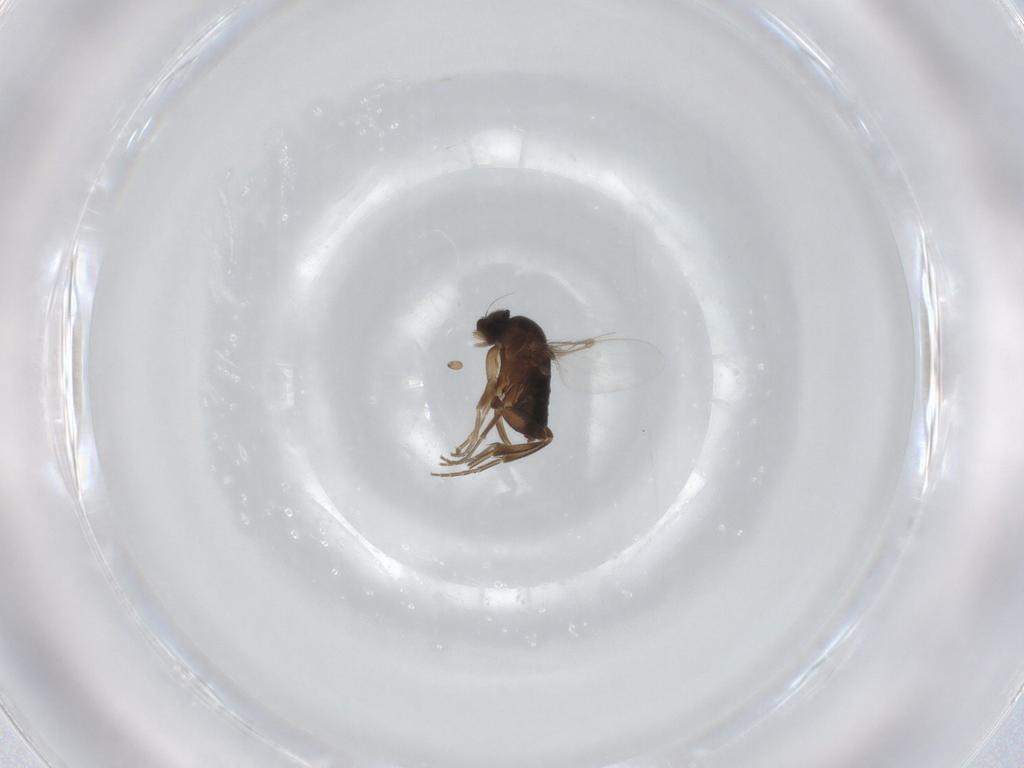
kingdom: Animalia
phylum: Arthropoda
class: Insecta
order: Diptera
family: Phoridae
